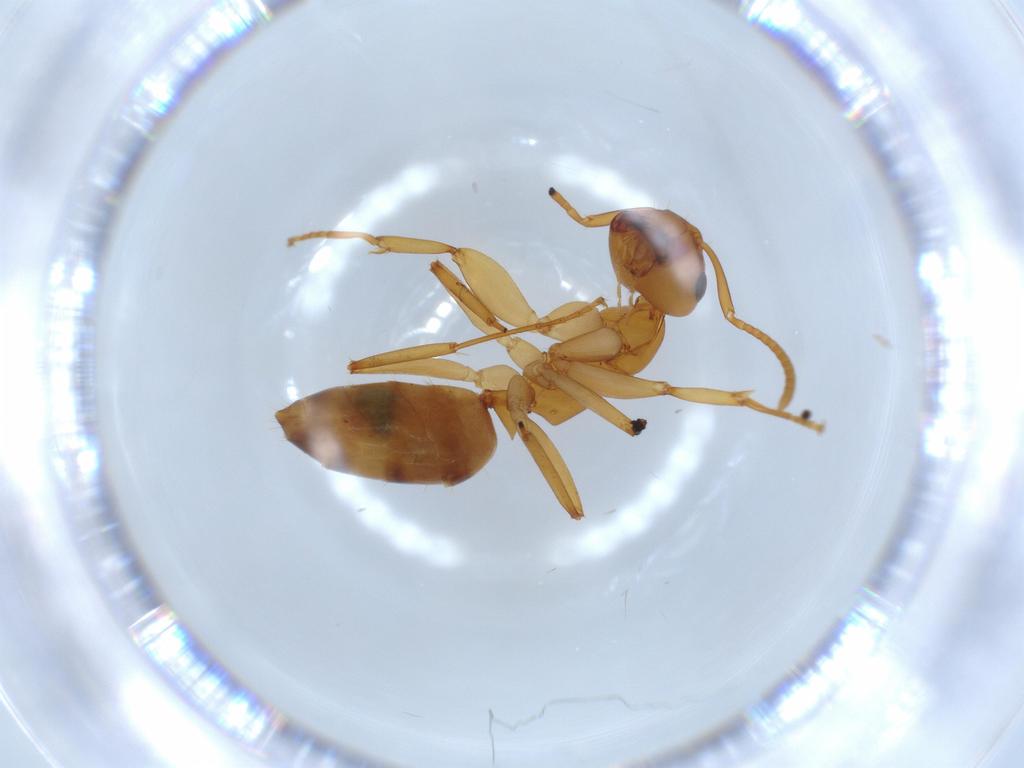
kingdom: Animalia
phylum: Arthropoda
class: Insecta
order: Hymenoptera
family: Formicidae
